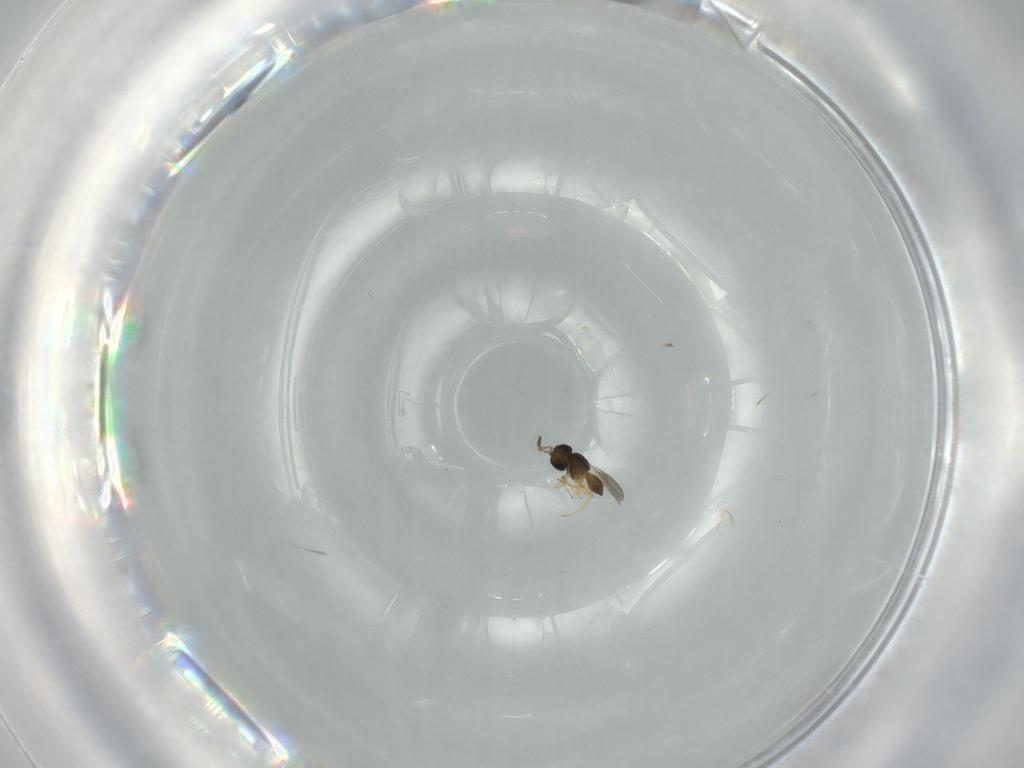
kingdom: Animalia
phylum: Arthropoda
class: Insecta
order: Hymenoptera
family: Scelionidae
